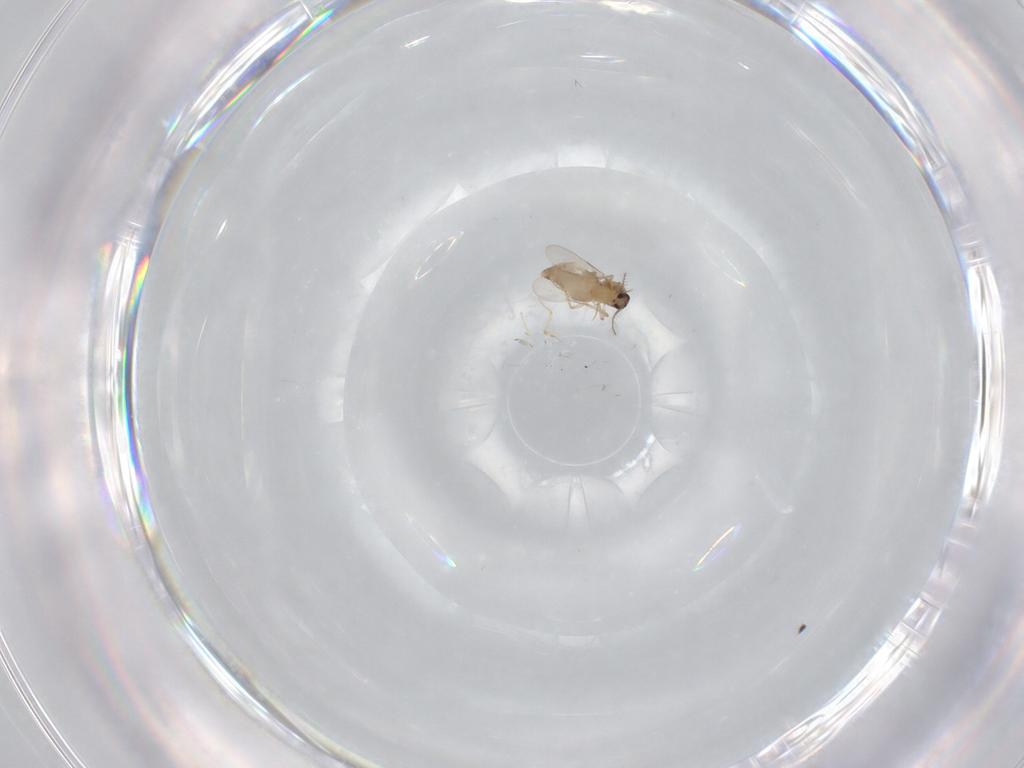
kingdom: Animalia
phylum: Arthropoda
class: Insecta
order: Diptera
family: Ceratopogonidae
